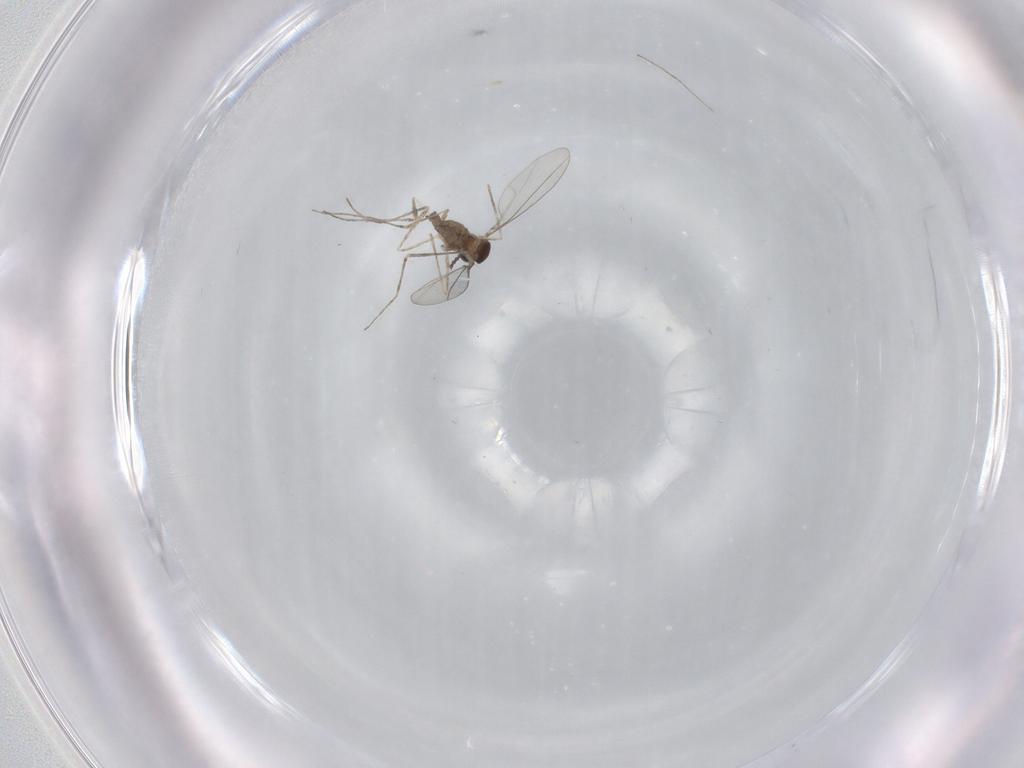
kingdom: Animalia
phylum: Arthropoda
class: Insecta
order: Diptera
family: Cecidomyiidae
